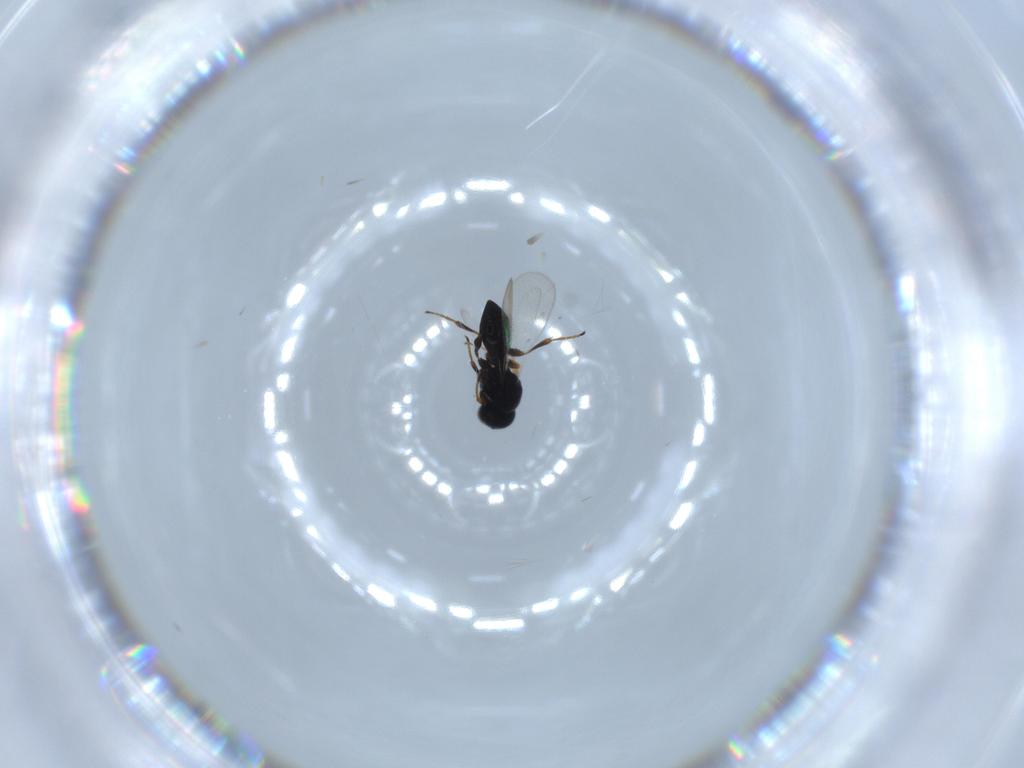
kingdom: Animalia
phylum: Arthropoda
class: Insecta
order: Hymenoptera
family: Platygastridae
